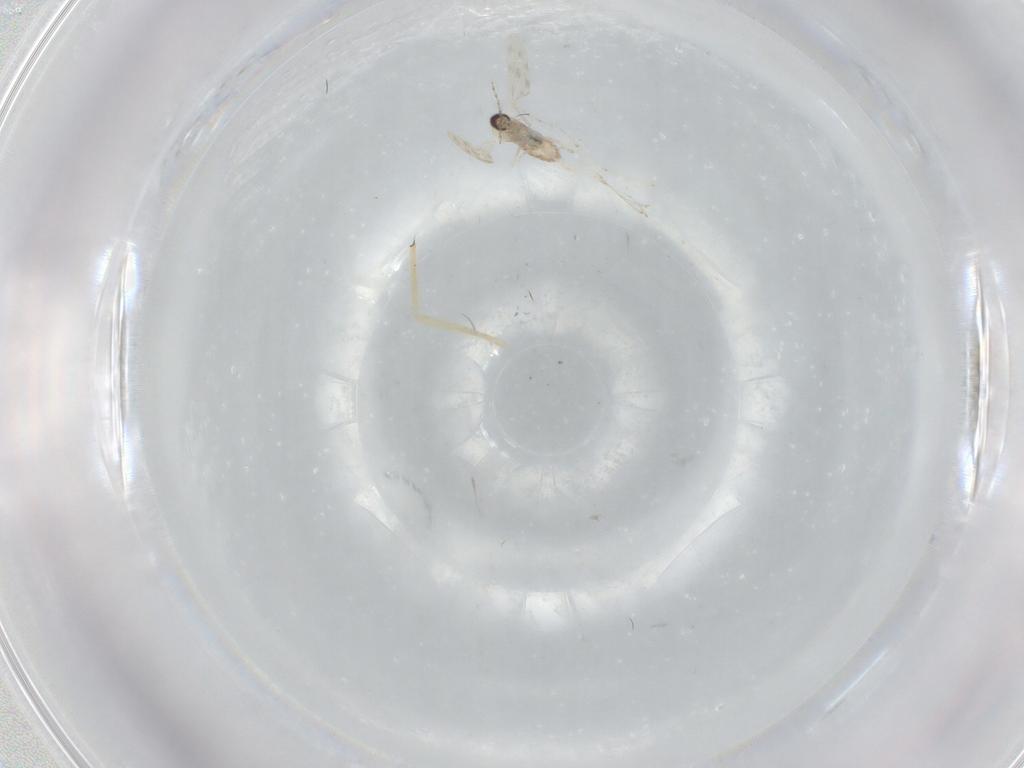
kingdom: Animalia
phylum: Arthropoda
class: Insecta
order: Diptera
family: Chironomidae
